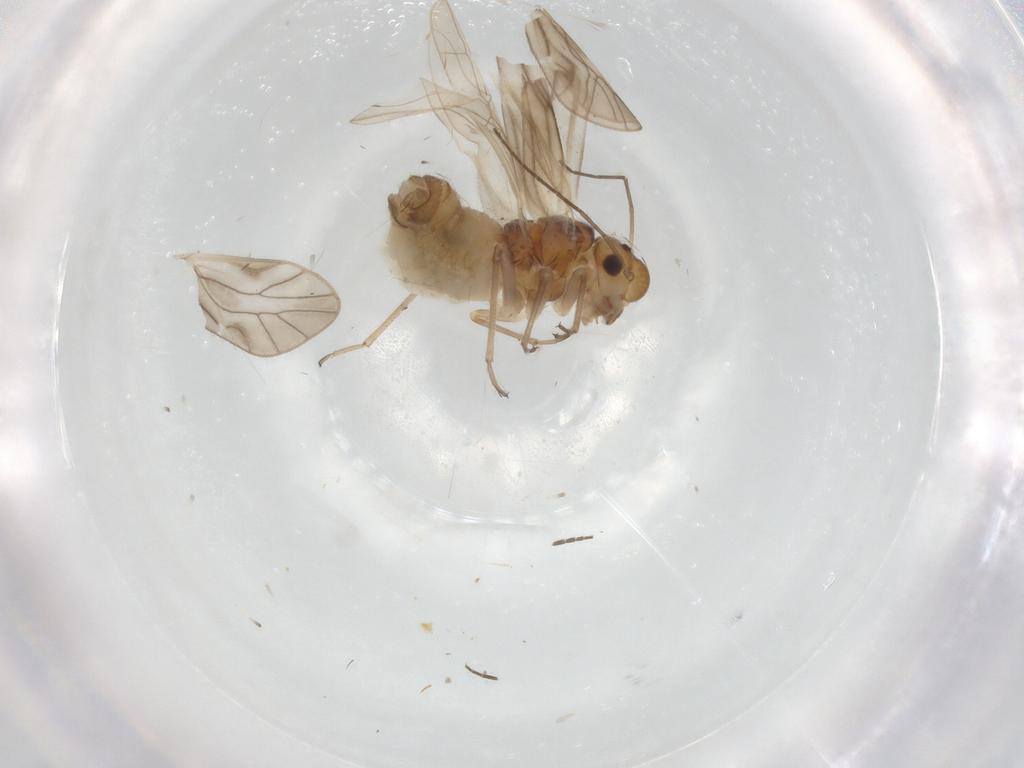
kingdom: Animalia
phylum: Arthropoda
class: Insecta
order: Psocodea
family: Philotarsidae
